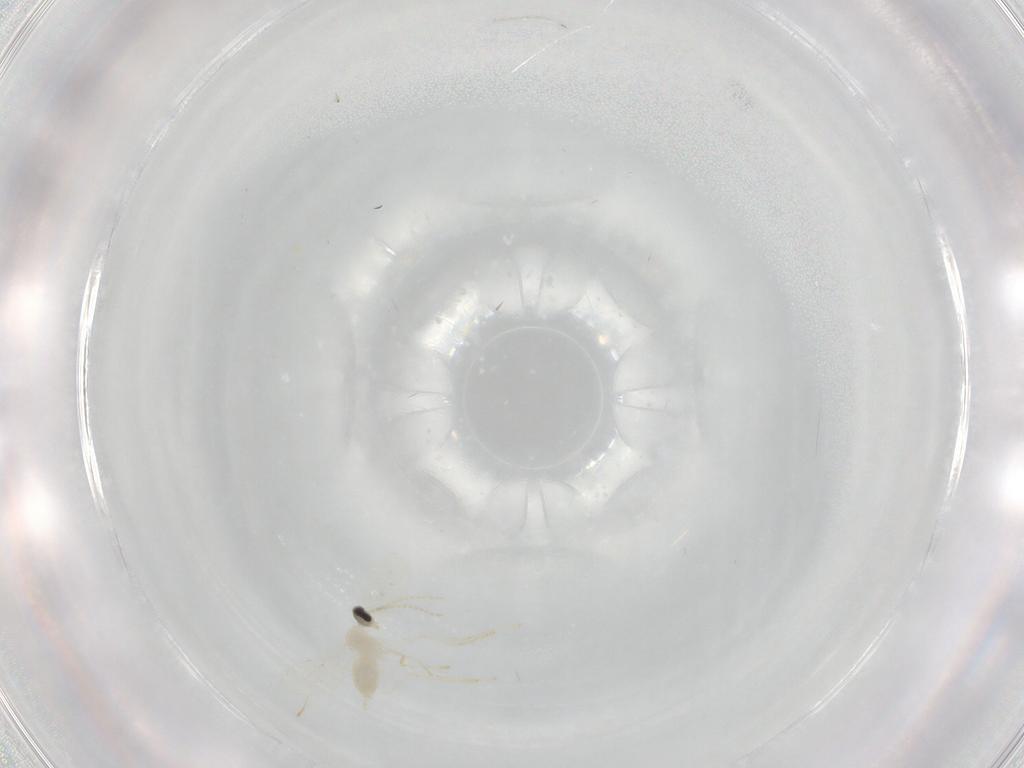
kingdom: Animalia
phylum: Arthropoda
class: Insecta
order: Diptera
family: Cecidomyiidae
